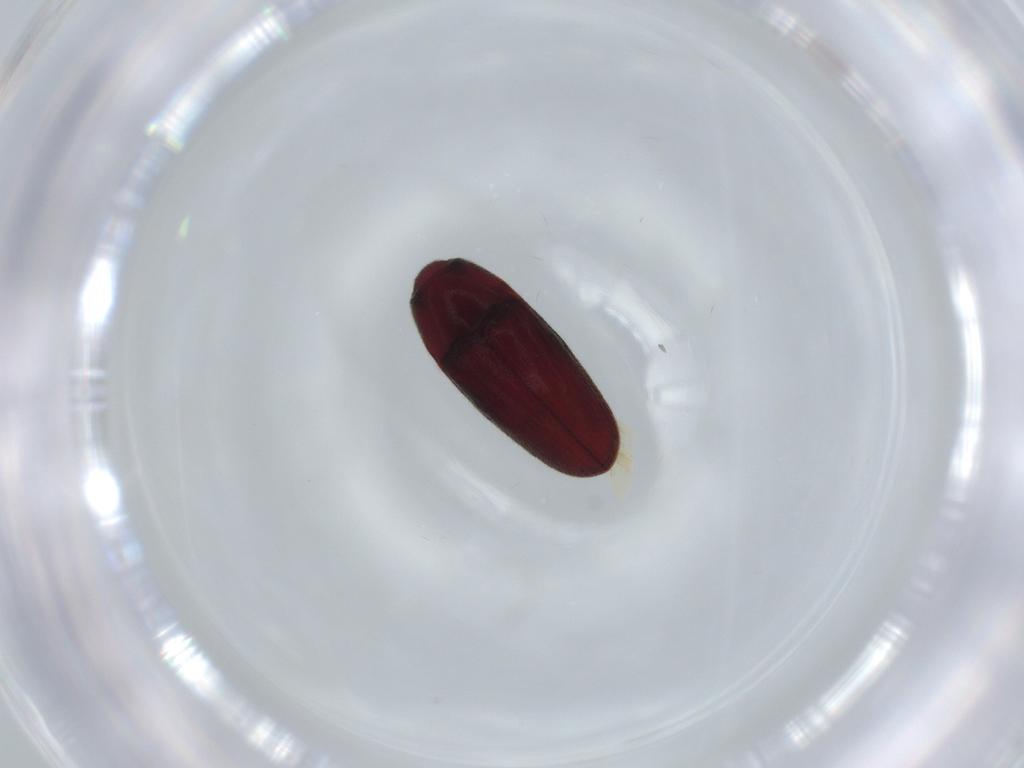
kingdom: Animalia
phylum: Arthropoda
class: Insecta
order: Coleoptera
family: Throscidae
